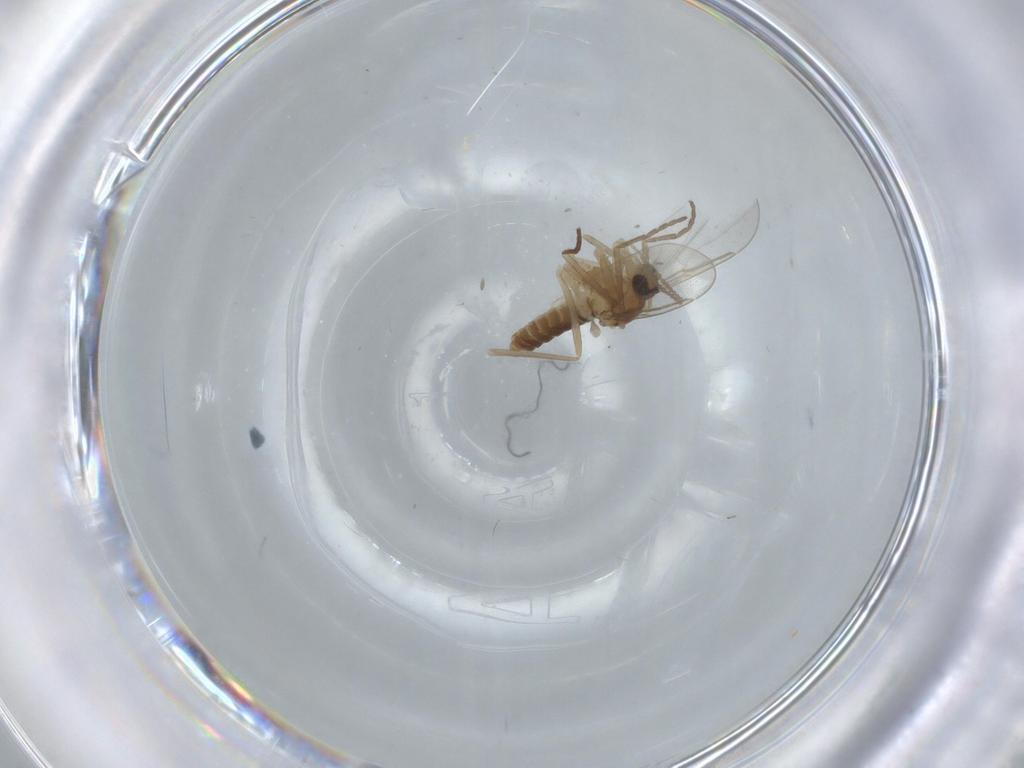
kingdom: Animalia
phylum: Arthropoda
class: Insecta
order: Diptera
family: Cecidomyiidae
